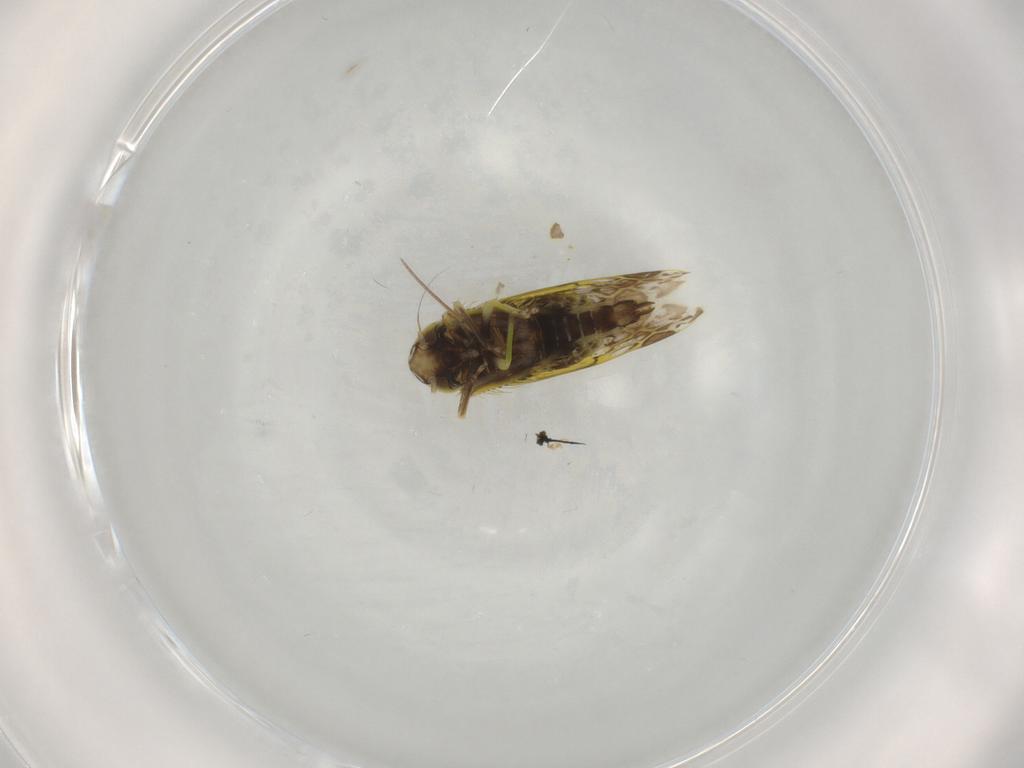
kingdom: Animalia
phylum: Arthropoda
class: Insecta
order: Hemiptera
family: Cicadellidae
